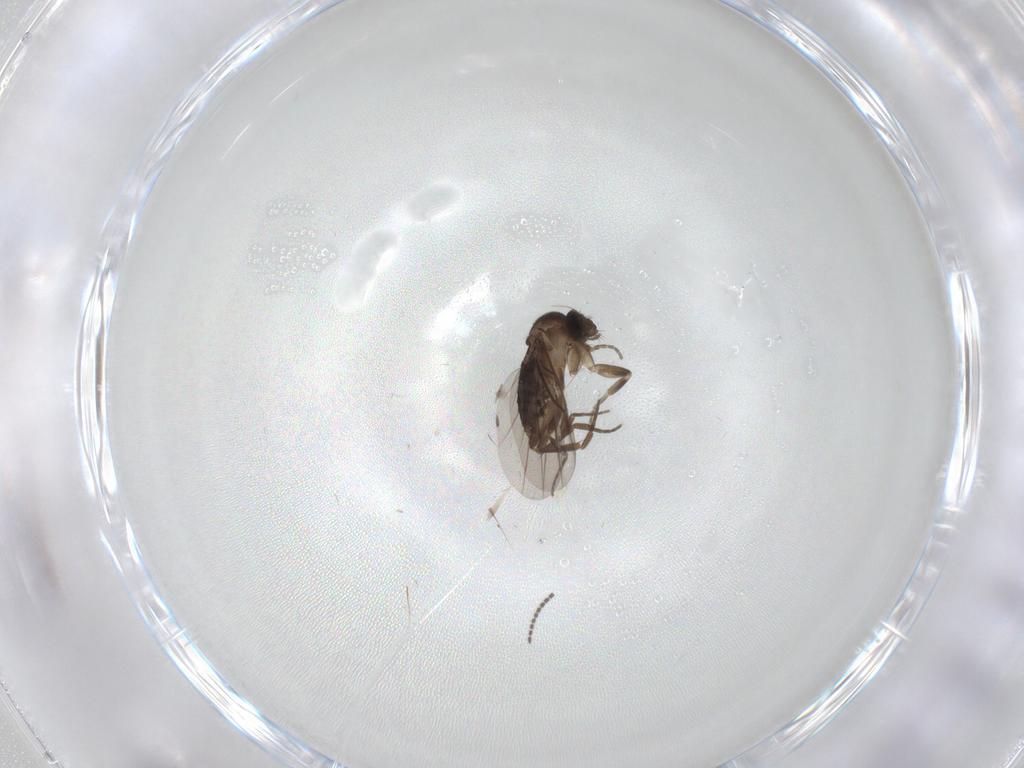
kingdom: Animalia
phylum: Arthropoda
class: Insecta
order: Diptera
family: Phoridae
